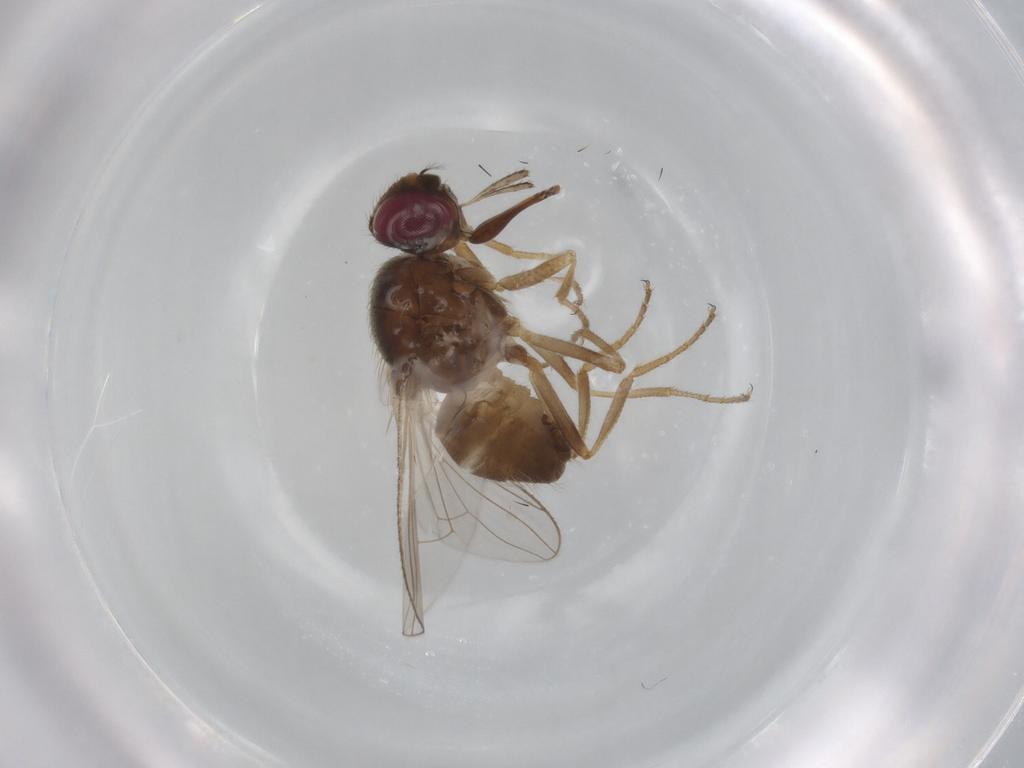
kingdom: Animalia
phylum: Arthropoda
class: Insecta
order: Diptera
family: Muscidae
